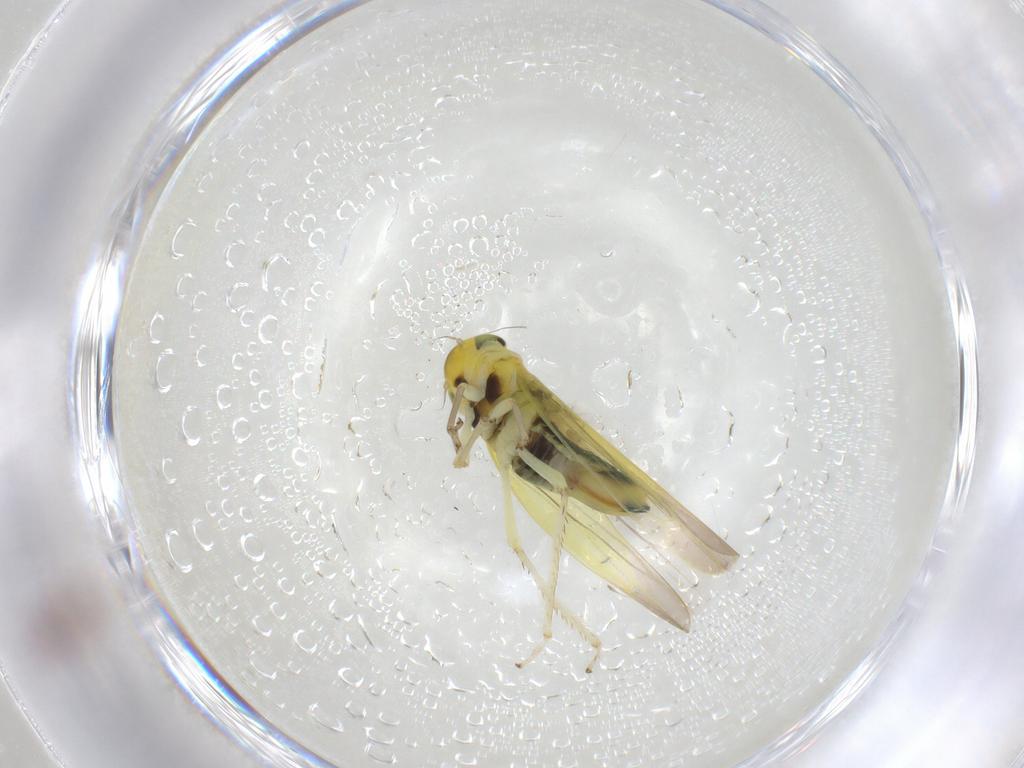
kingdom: Animalia
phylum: Arthropoda
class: Insecta
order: Hemiptera
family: Cicadellidae
